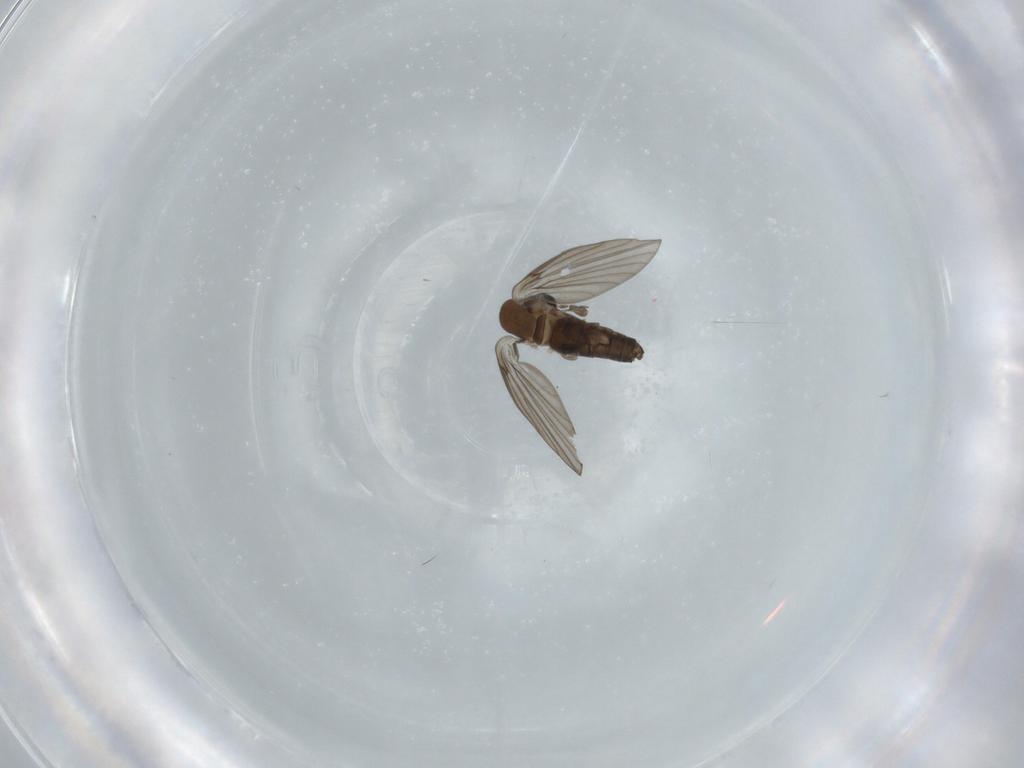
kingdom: Animalia
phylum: Arthropoda
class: Insecta
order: Diptera
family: Psychodidae
